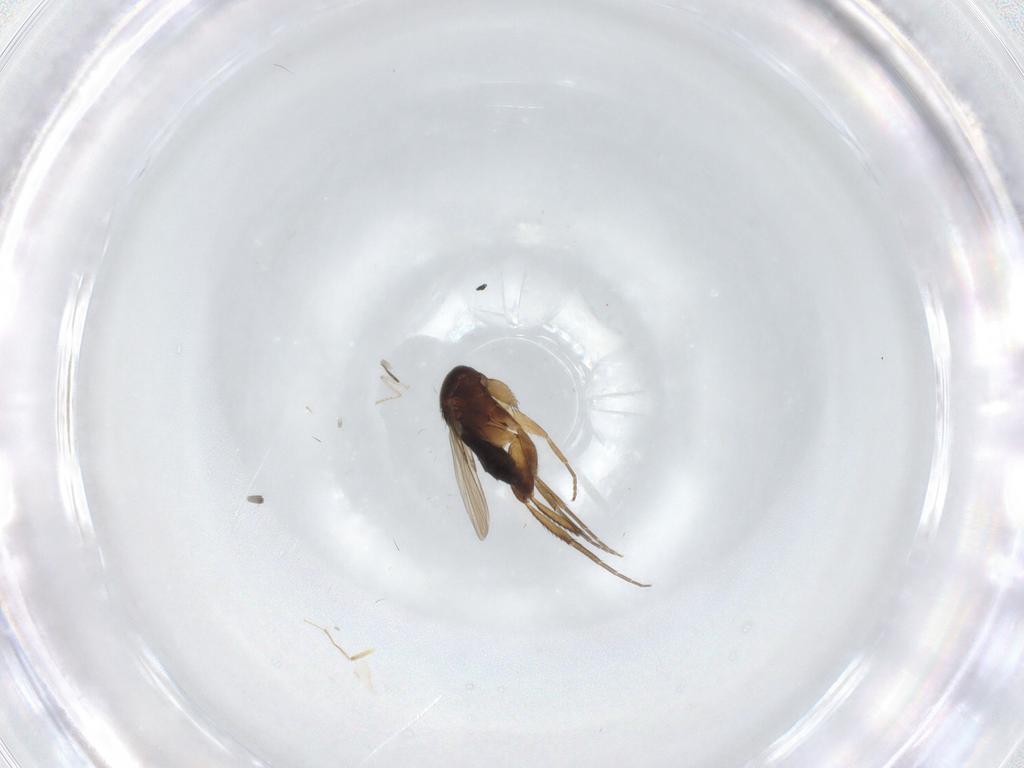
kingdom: Animalia
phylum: Arthropoda
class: Insecta
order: Diptera
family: Phoridae
